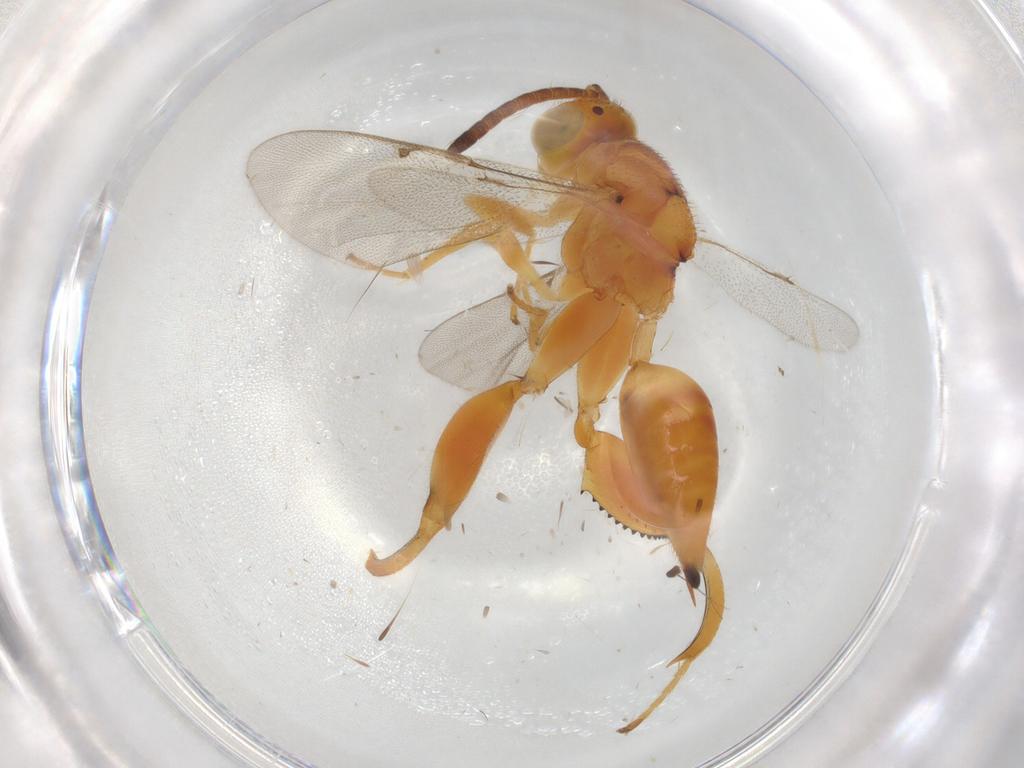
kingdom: Animalia
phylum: Arthropoda
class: Insecta
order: Hymenoptera
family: Chalcididae
